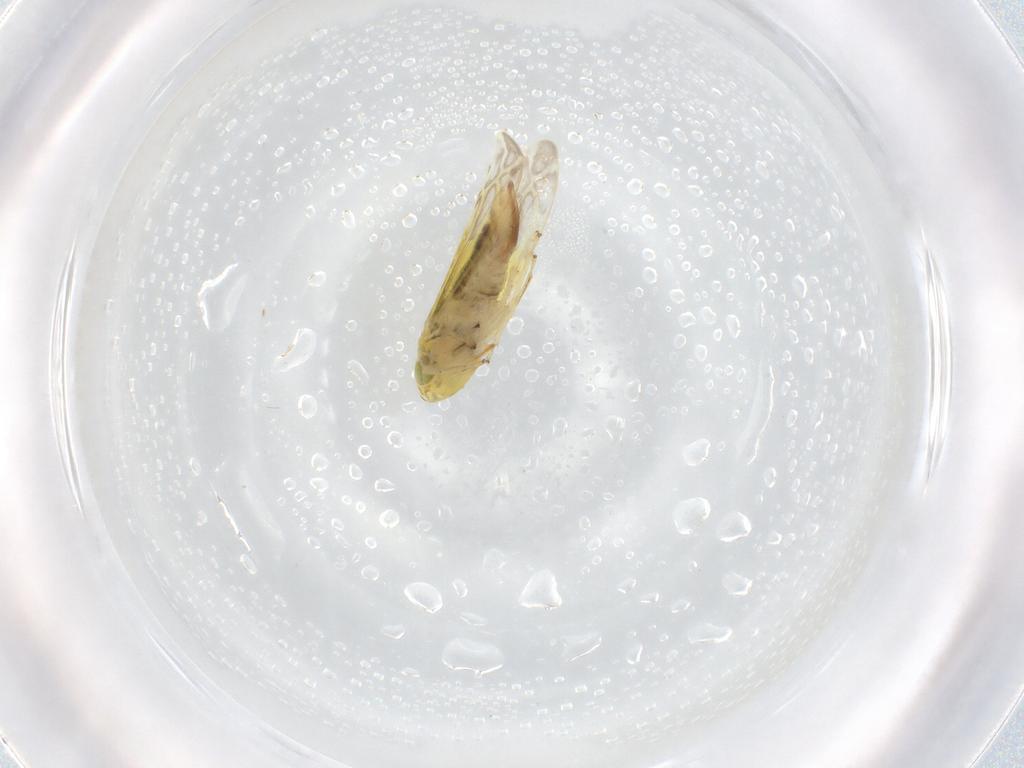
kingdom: Animalia
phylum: Arthropoda
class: Insecta
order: Hemiptera
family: Cicadellidae
